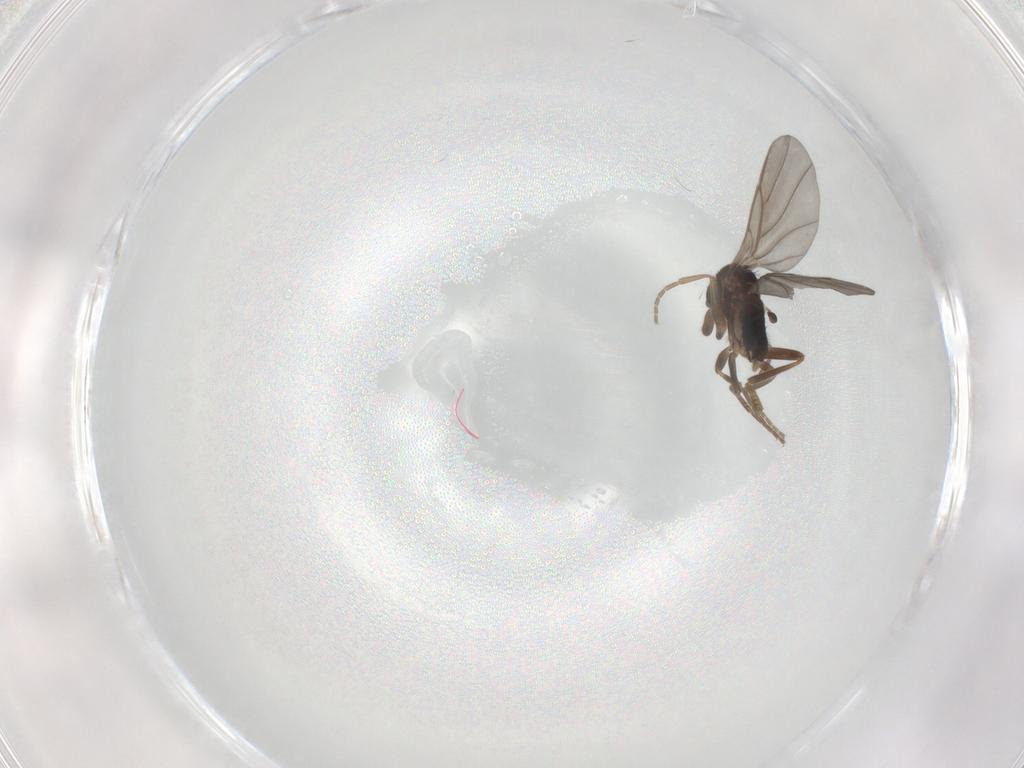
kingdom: Animalia
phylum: Arthropoda
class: Insecta
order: Diptera
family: Phoridae
